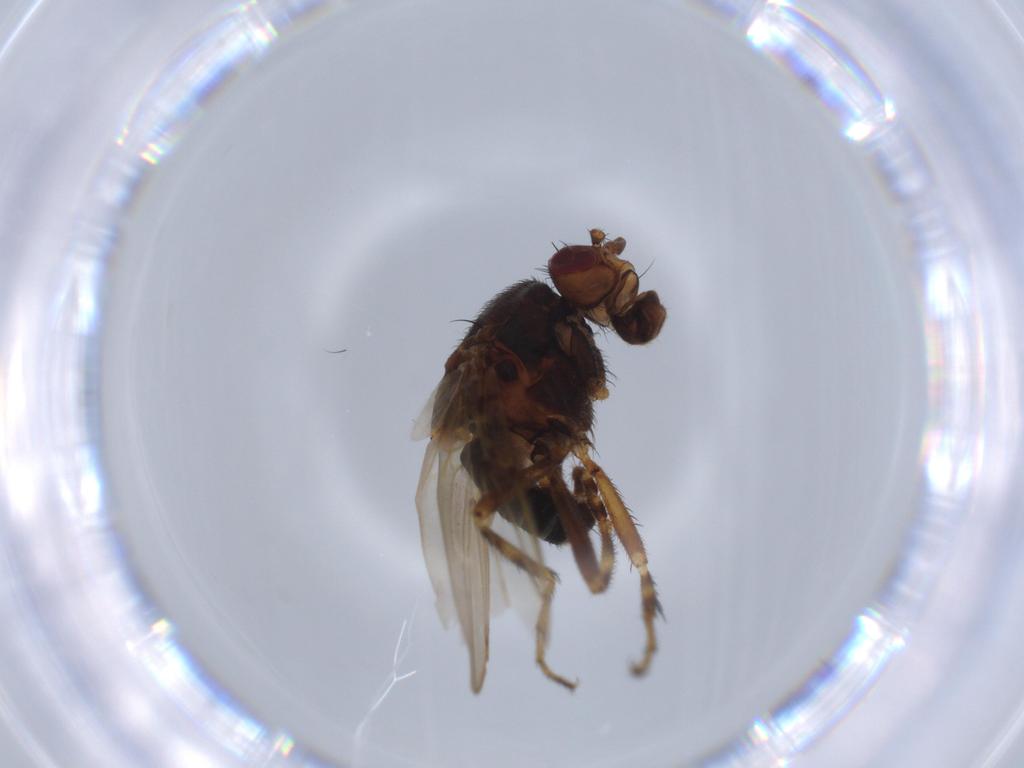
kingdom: Animalia
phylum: Arthropoda
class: Insecta
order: Diptera
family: Sphaeroceridae
